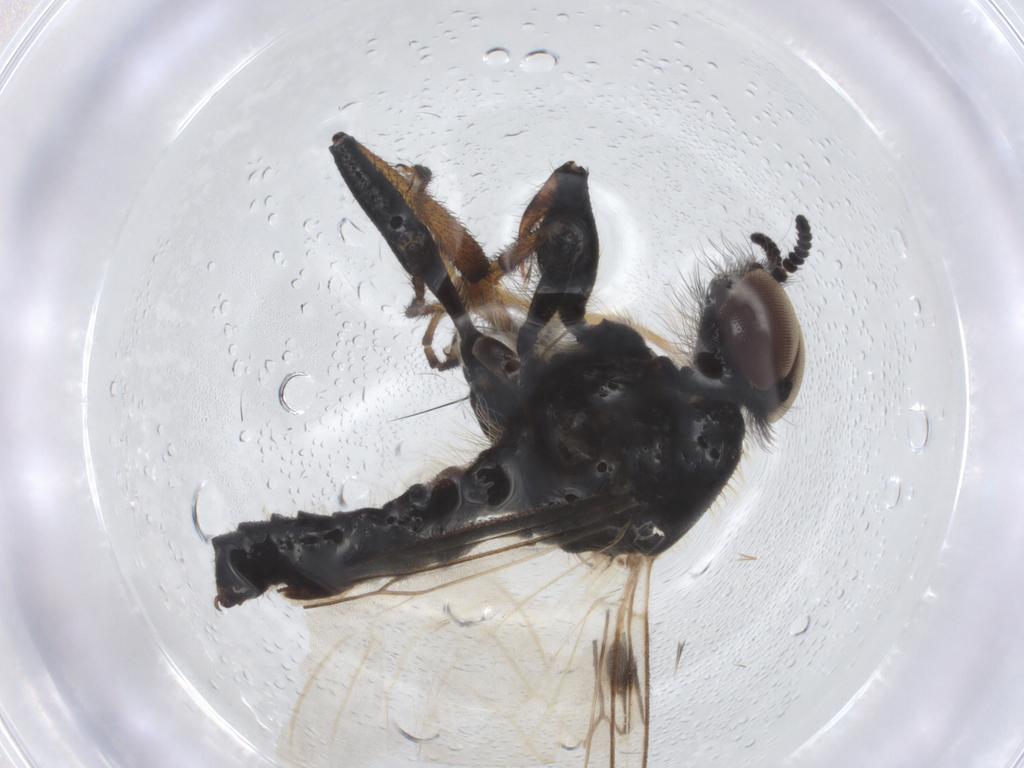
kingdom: Animalia
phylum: Arthropoda
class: Insecta
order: Diptera
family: Bibionidae
